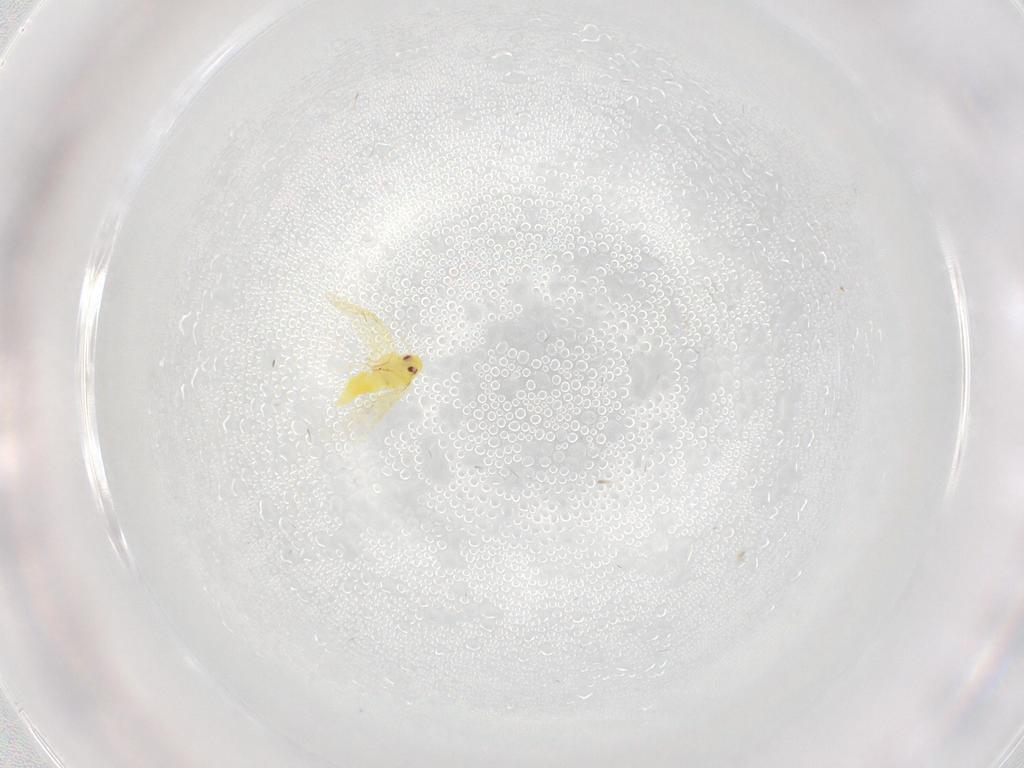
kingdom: Animalia
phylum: Arthropoda
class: Insecta
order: Hemiptera
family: Aleyrodidae
